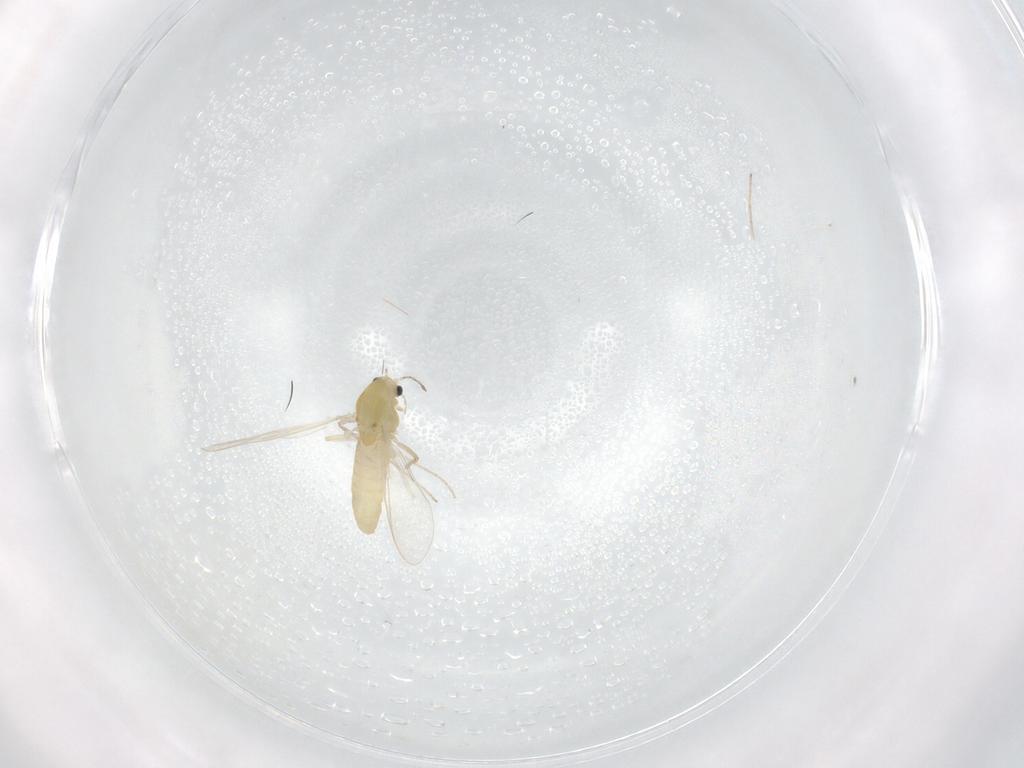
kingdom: Animalia
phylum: Arthropoda
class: Insecta
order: Diptera
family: Chironomidae
